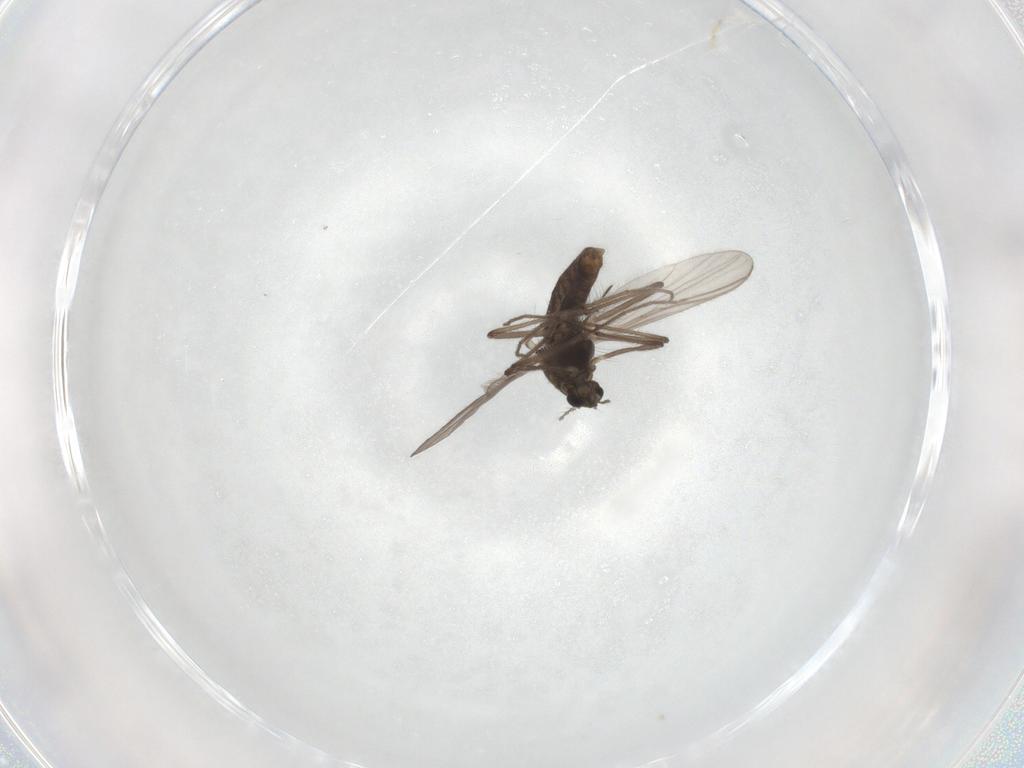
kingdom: Animalia
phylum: Arthropoda
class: Insecta
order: Diptera
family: Chironomidae
